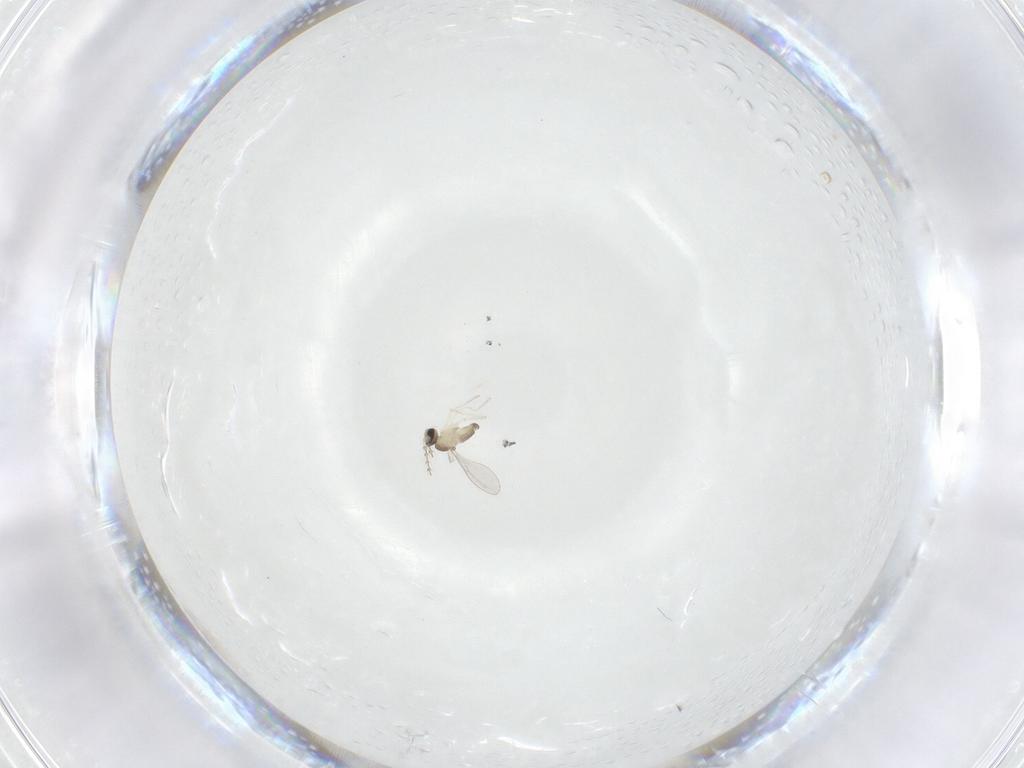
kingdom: Animalia
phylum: Arthropoda
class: Insecta
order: Diptera
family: Cecidomyiidae
